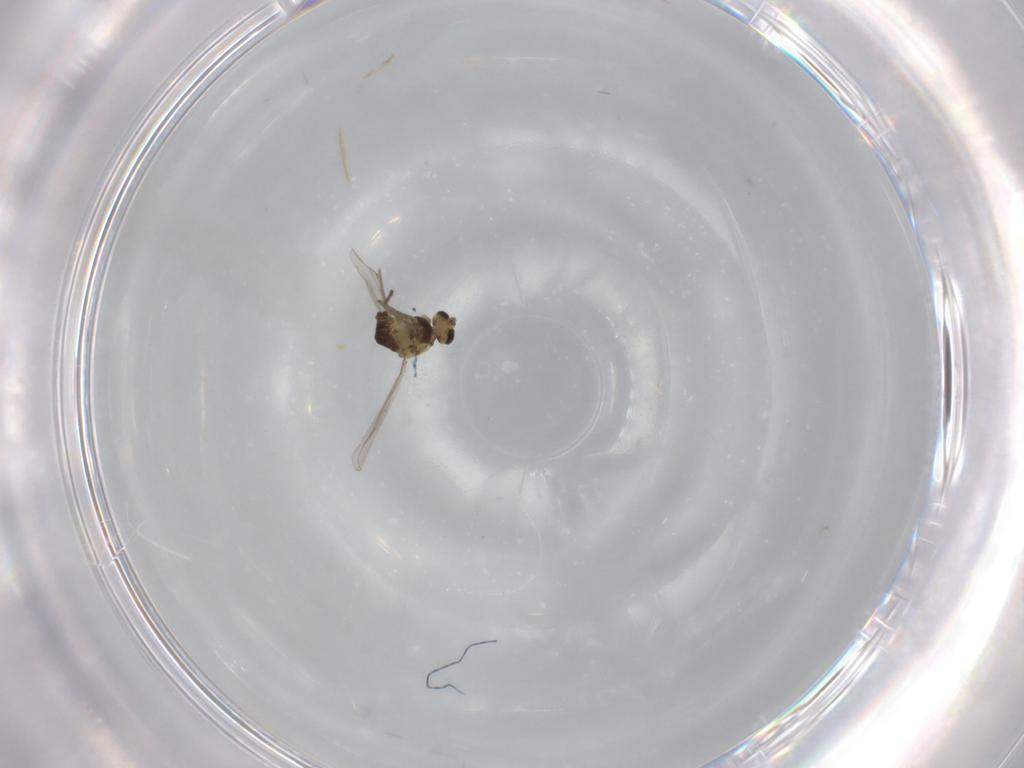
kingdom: Animalia
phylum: Arthropoda
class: Insecta
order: Diptera
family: Chironomidae
